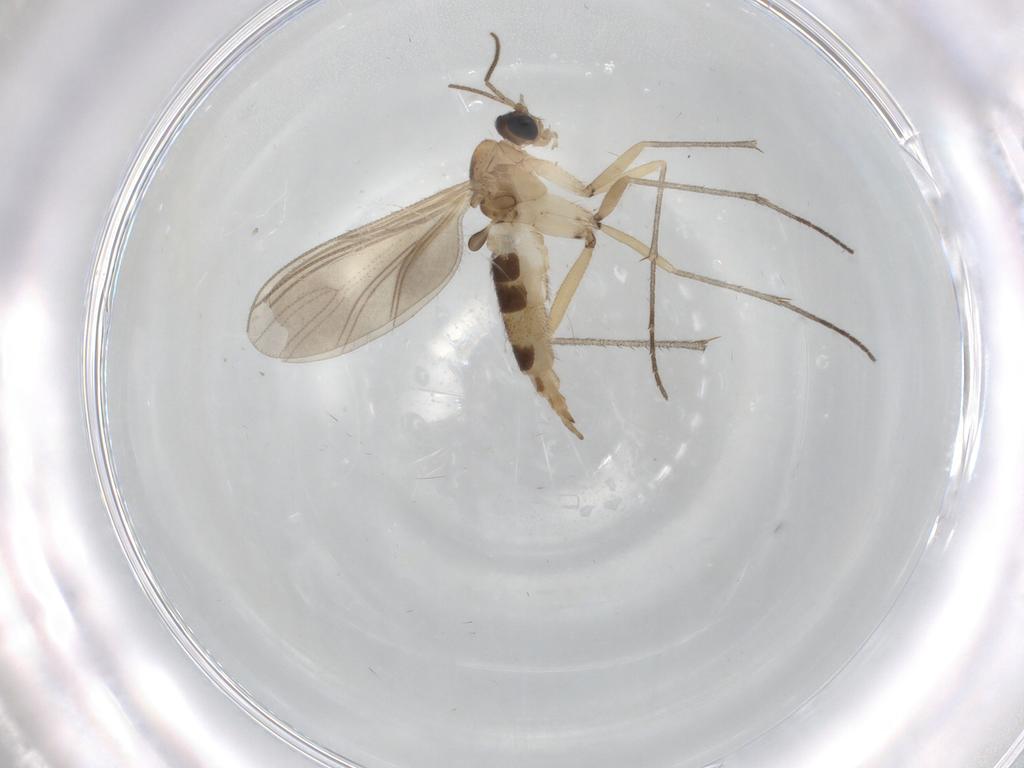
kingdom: Animalia
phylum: Arthropoda
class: Insecta
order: Diptera
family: Cecidomyiidae
